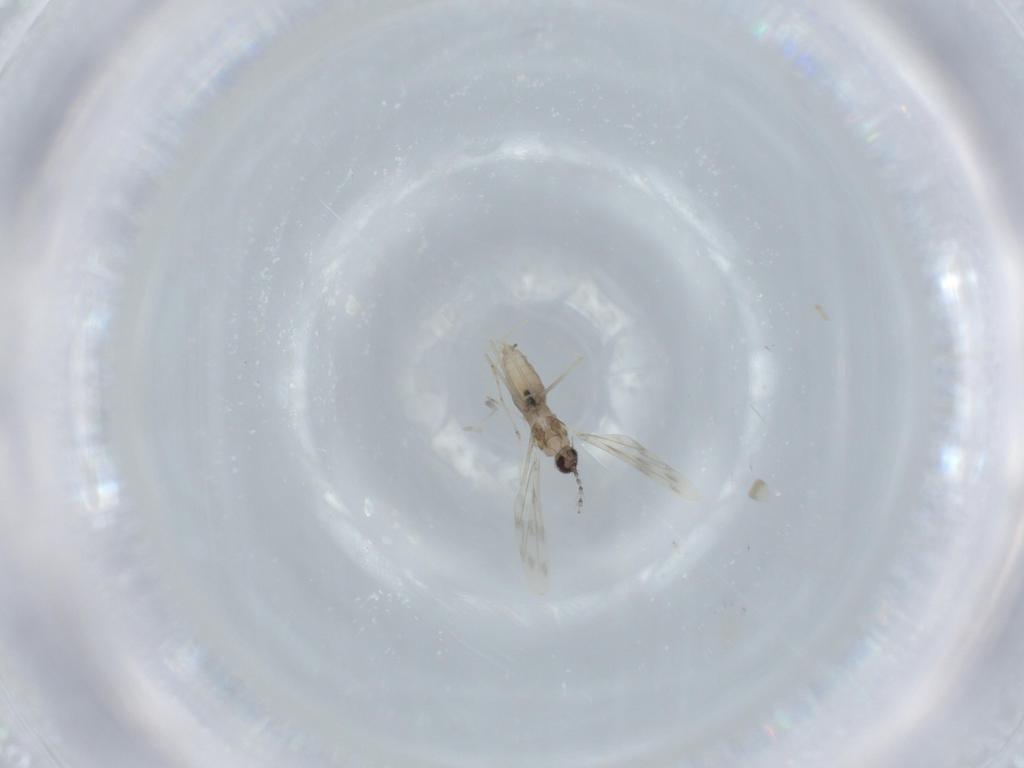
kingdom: Animalia
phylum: Arthropoda
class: Insecta
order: Diptera
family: Cecidomyiidae
